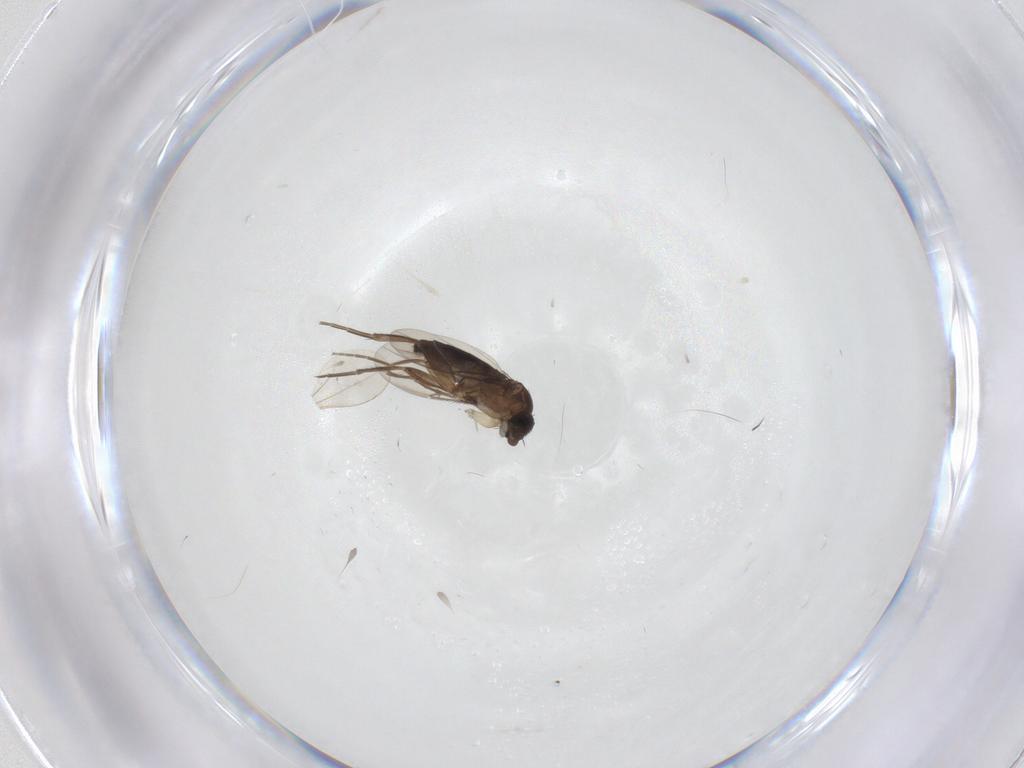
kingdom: Animalia
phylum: Arthropoda
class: Insecta
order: Diptera
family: Phoridae
